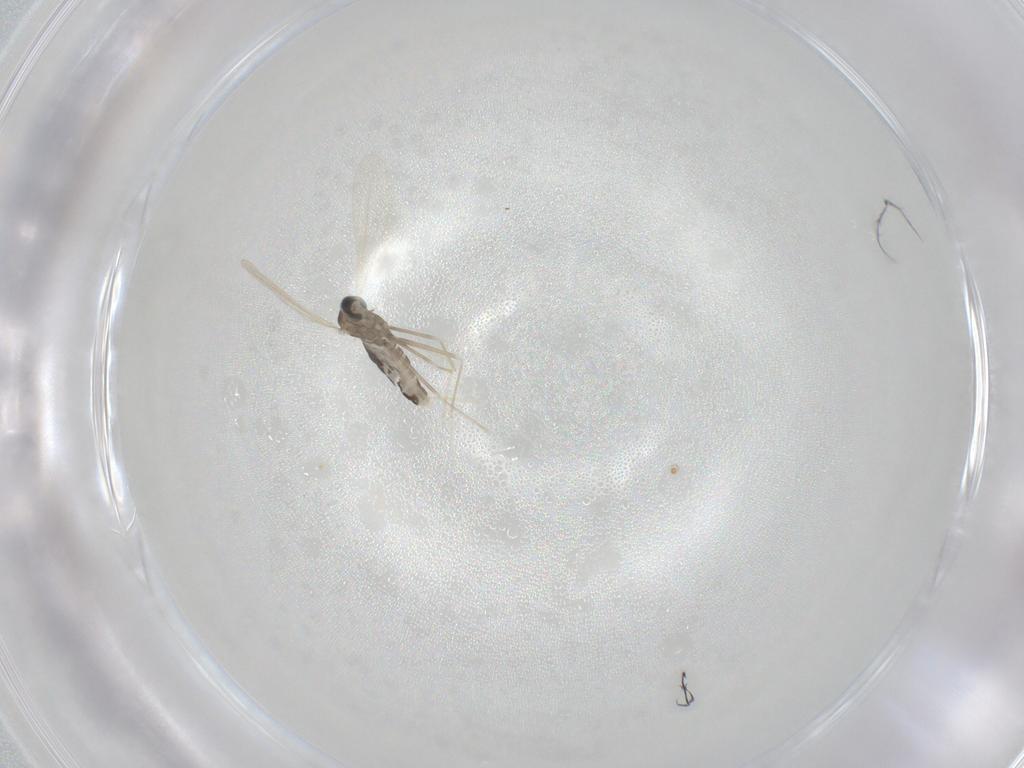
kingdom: Animalia
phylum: Arthropoda
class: Insecta
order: Diptera
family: Cecidomyiidae
